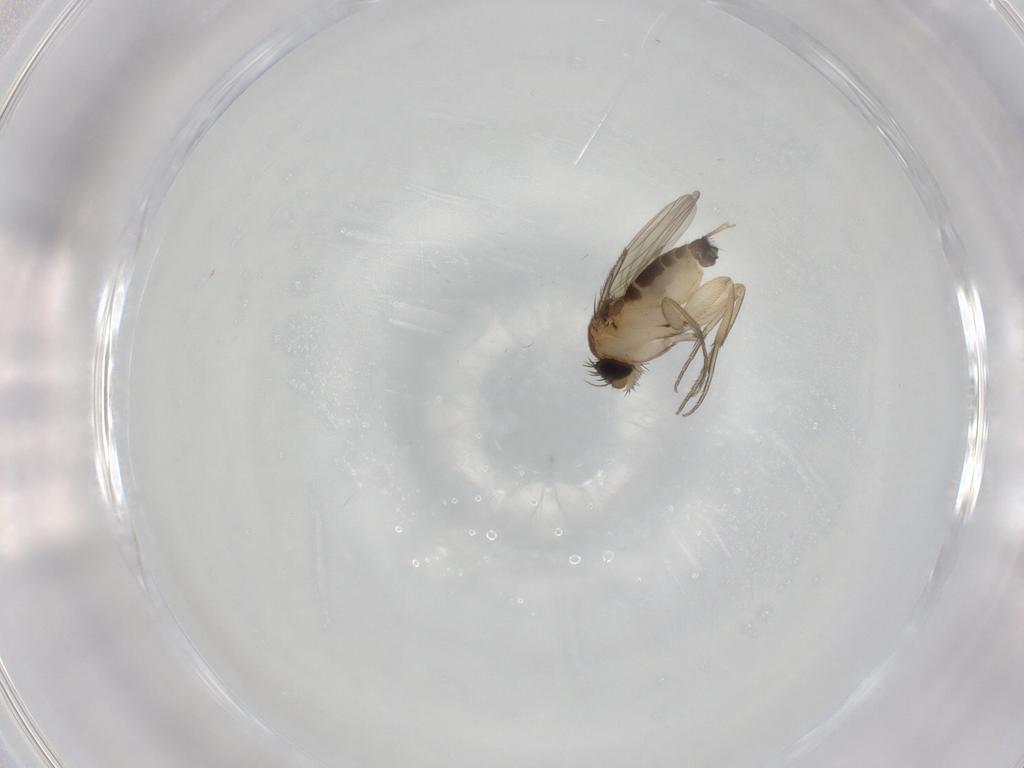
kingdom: Animalia
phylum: Arthropoda
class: Insecta
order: Diptera
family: Phoridae
